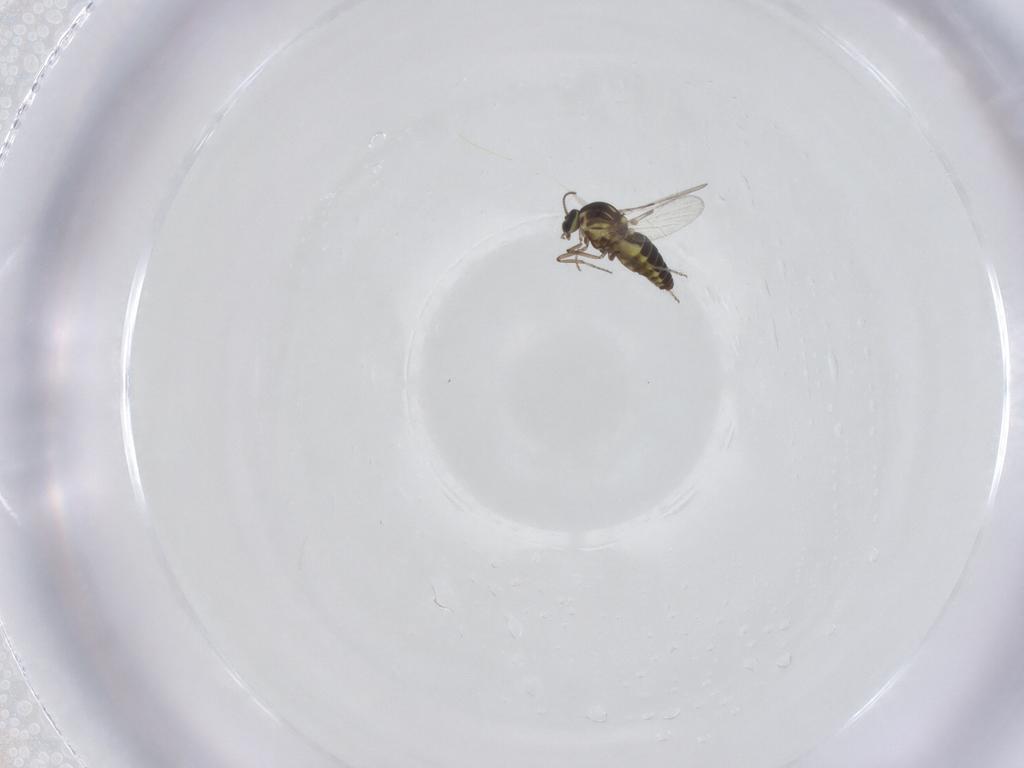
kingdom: Animalia
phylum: Arthropoda
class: Insecta
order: Diptera
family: Ceratopogonidae
